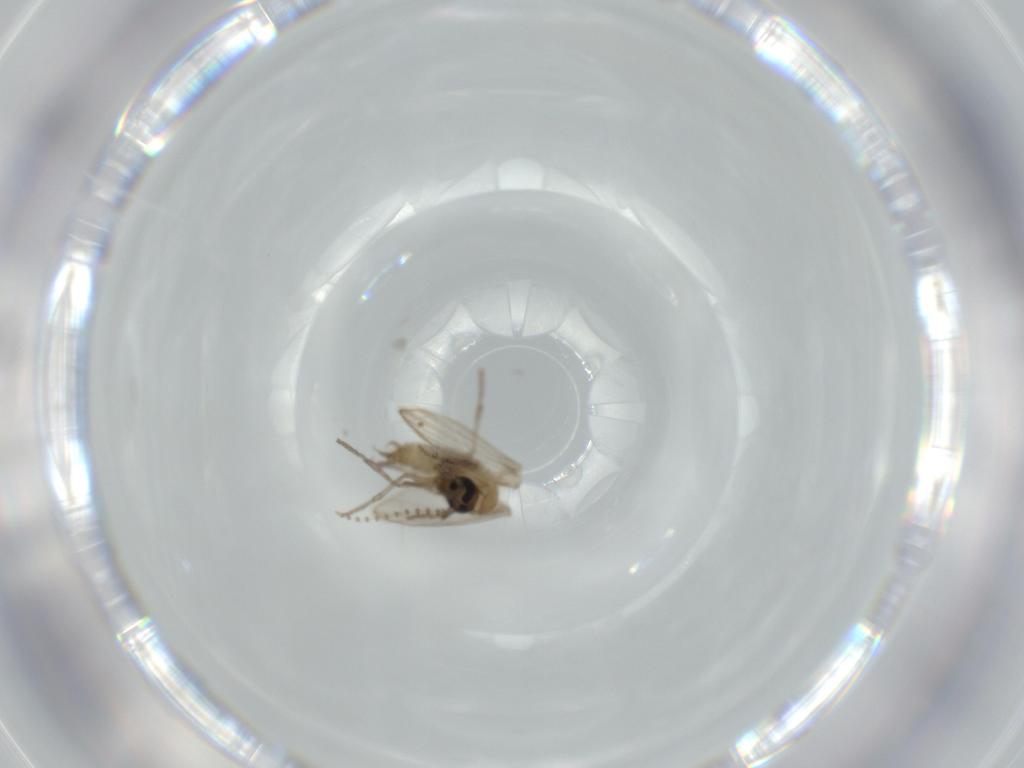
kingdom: Animalia
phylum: Arthropoda
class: Insecta
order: Diptera
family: Psychodidae
